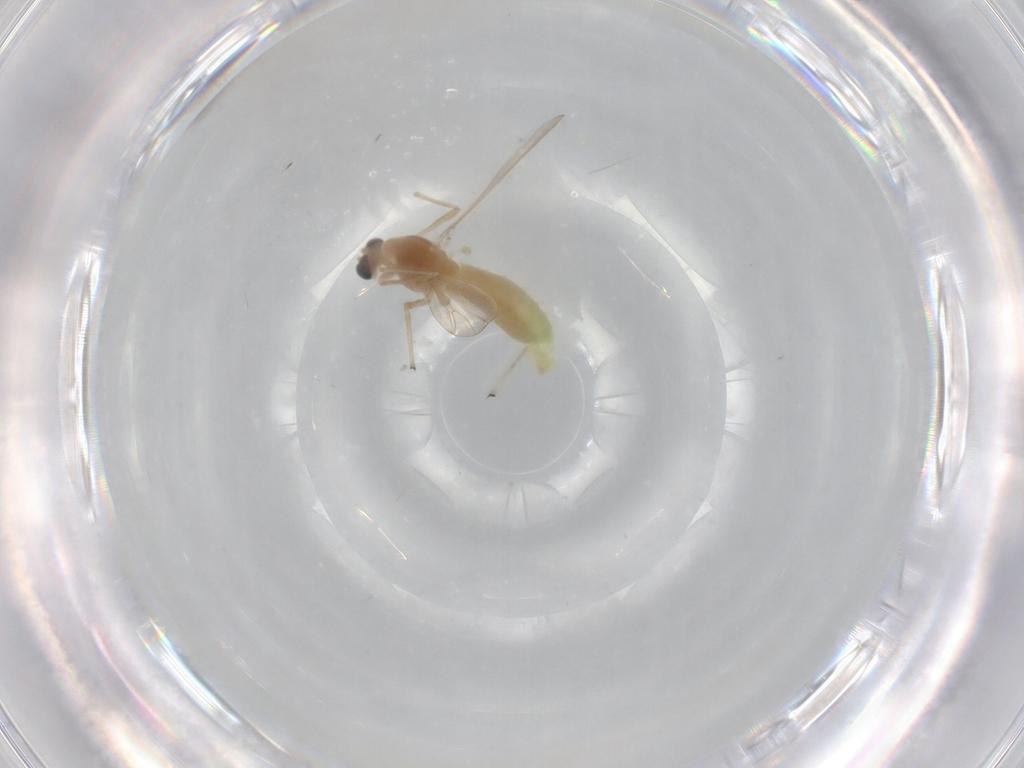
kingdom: Animalia
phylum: Arthropoda
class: Insecta
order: Diptera
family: Chironomidae
